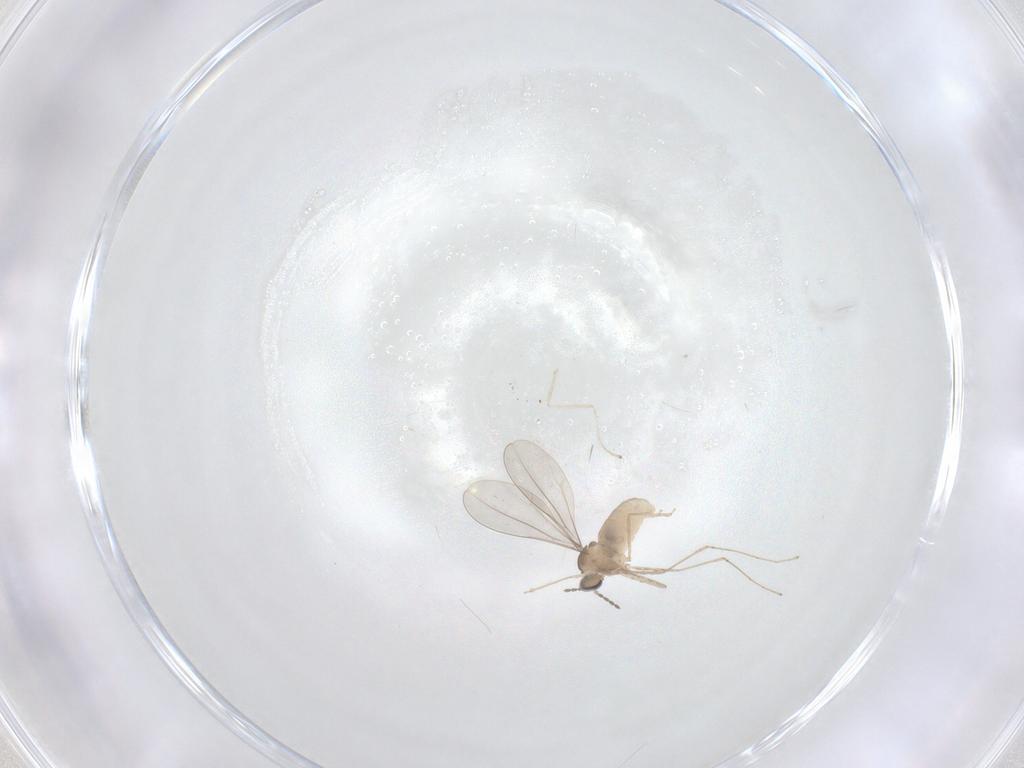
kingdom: Animalia
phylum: Arthropoda
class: Insecta
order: Diptera
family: Cecidomyiidae
